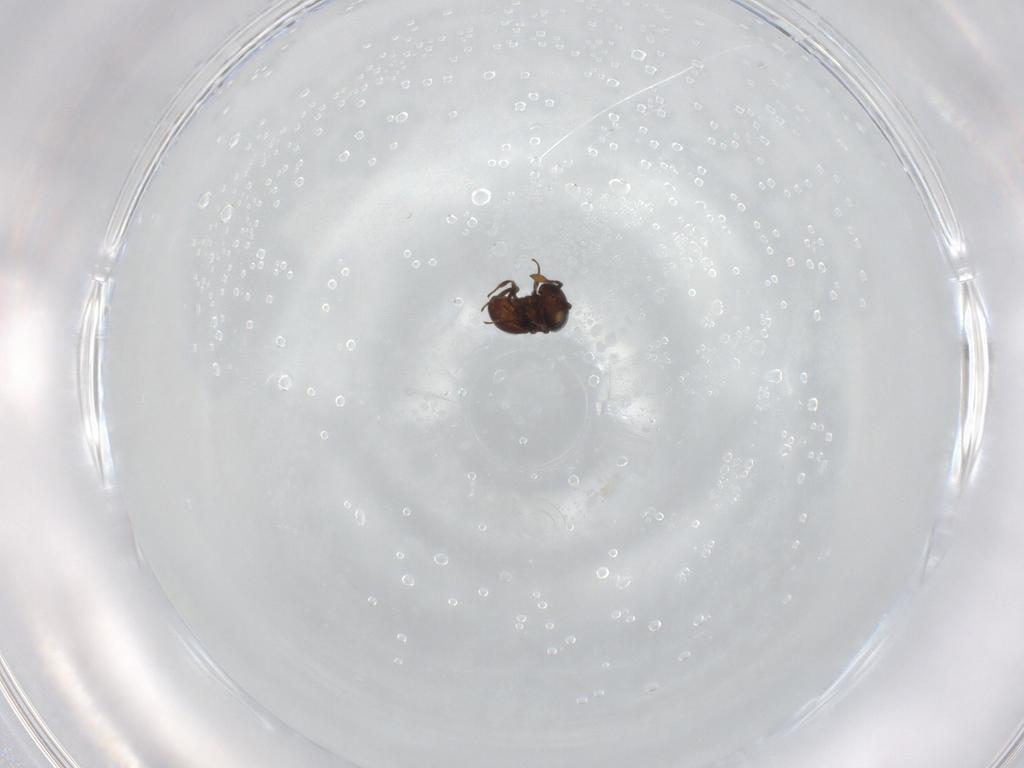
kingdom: Animalia
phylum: Arthropoda
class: Insecta
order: Hymenoptera
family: Scelionidae
